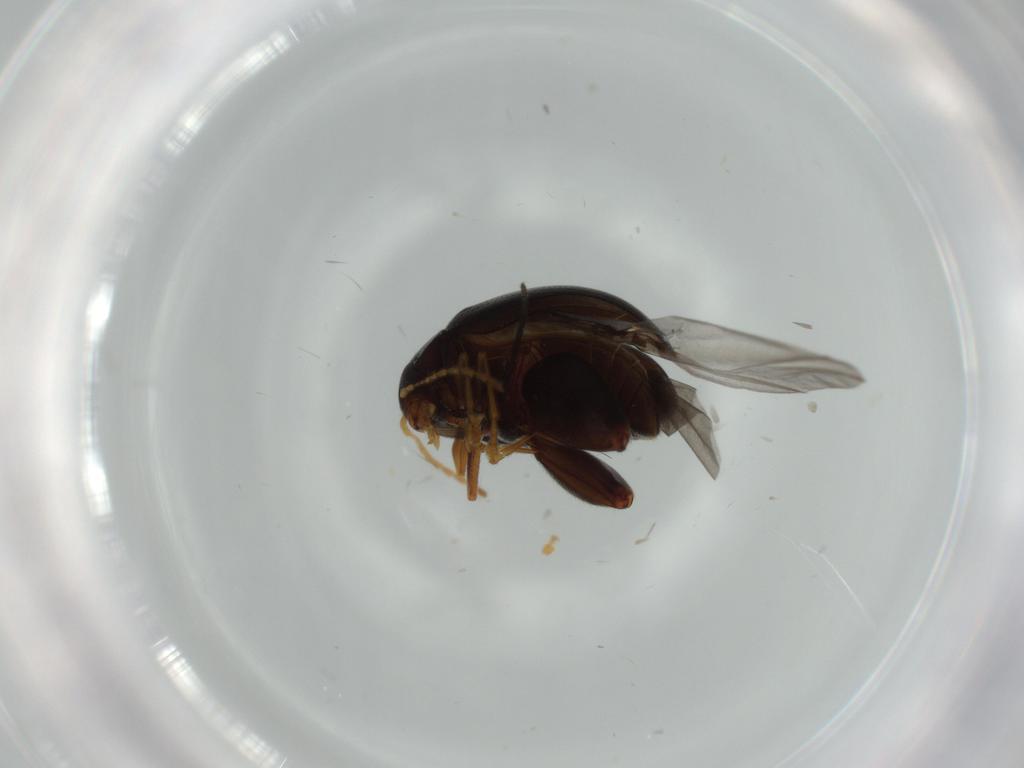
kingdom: Animalia
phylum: Arthropoda
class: Insecta
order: Coleoptera
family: Chrysomelidae
